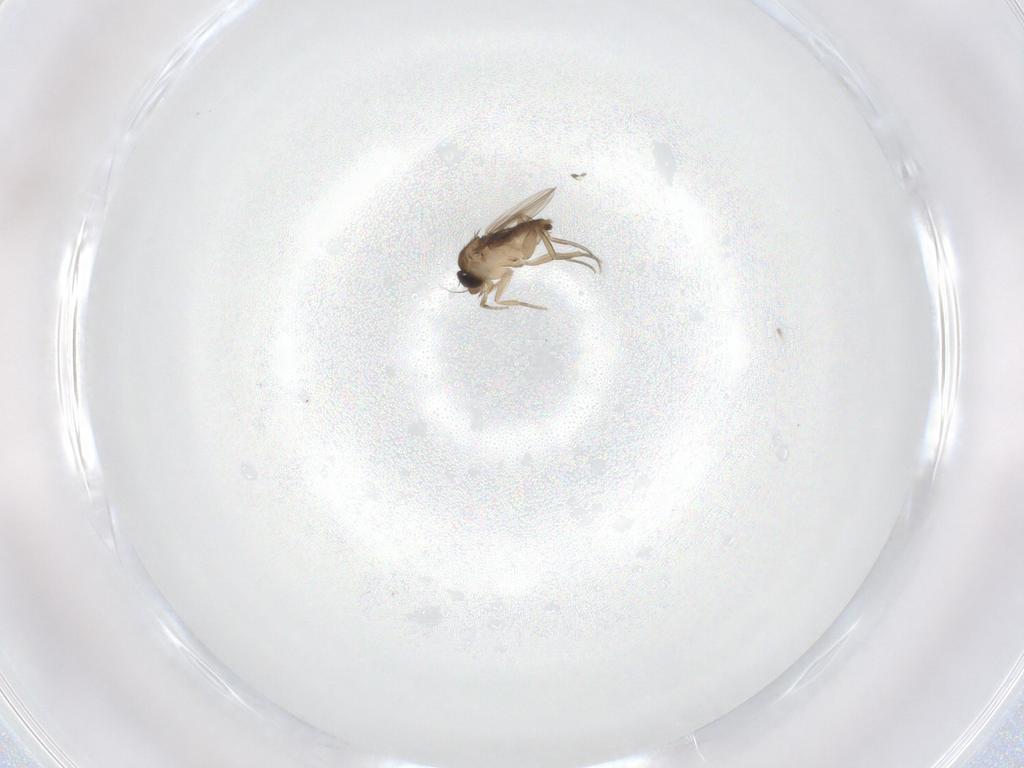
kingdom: Animalia
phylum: Arthropoda
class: Insecta
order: Diptera
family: Phoridae
